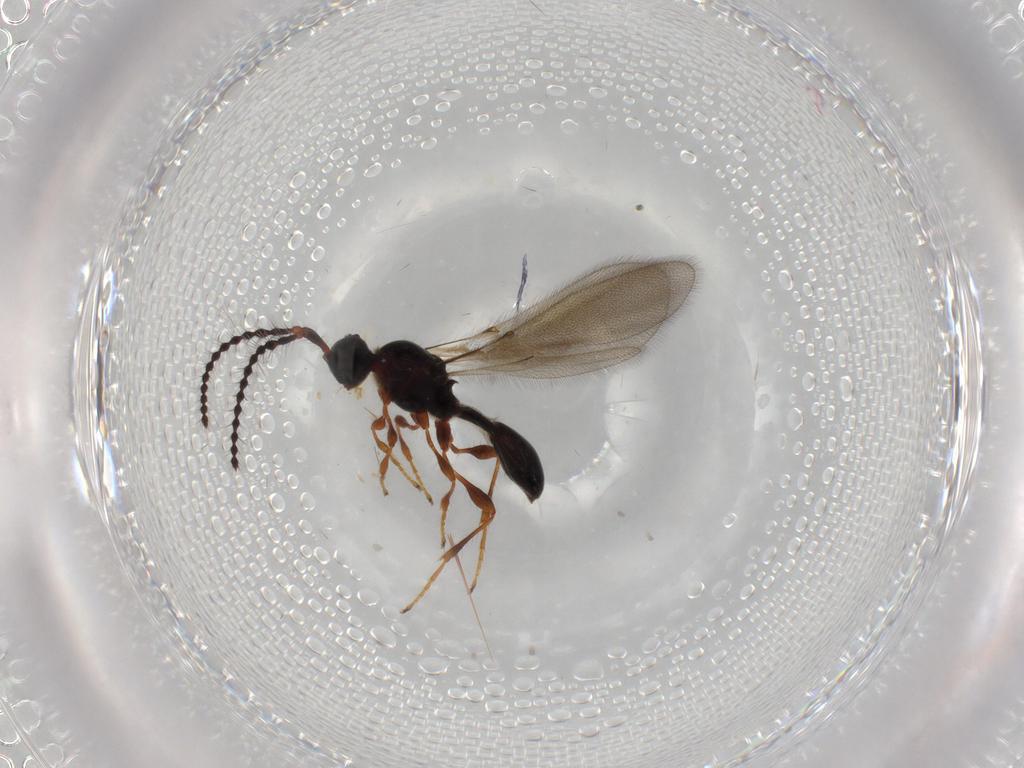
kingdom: Animalia
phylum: Arthropoda
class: Insecta
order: Hymenoptera
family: Diapriidae
